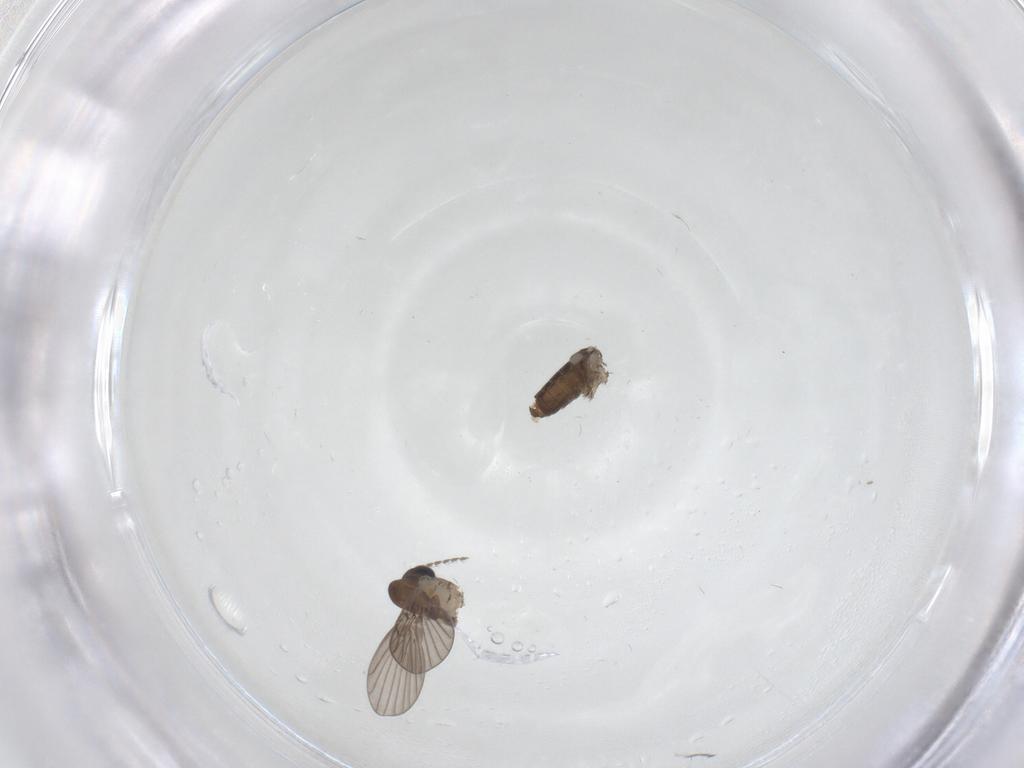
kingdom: Animalia
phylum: Arthropoda
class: Insecta
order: Diptera
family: Psychodidae
